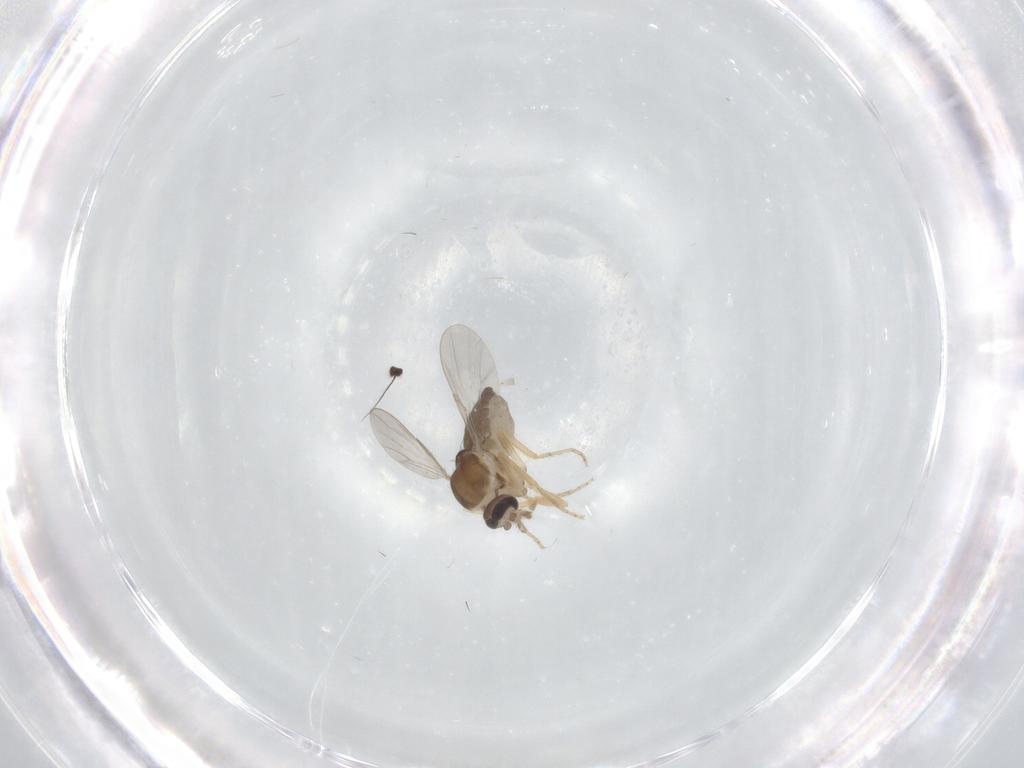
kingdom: Animalia
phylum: Arthropoda
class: Insecta
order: Diptera
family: Ceratopogonidae
